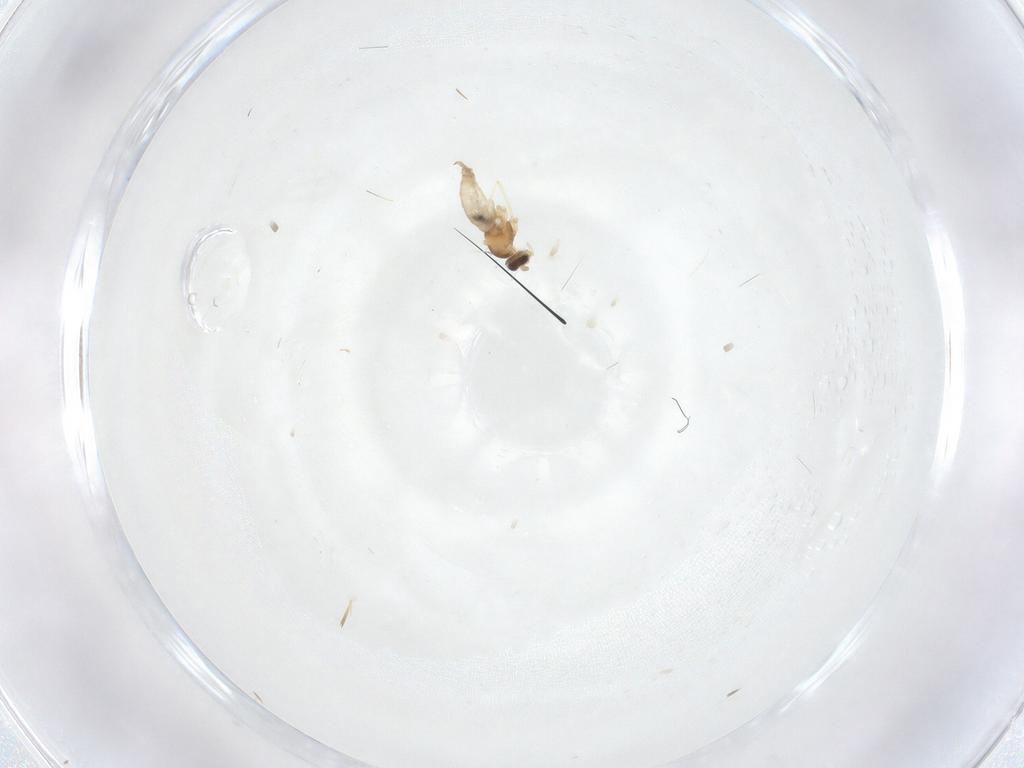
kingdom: Animalia
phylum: Arthropoda
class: Insecta
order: Diptera
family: Cecidomyiidae
